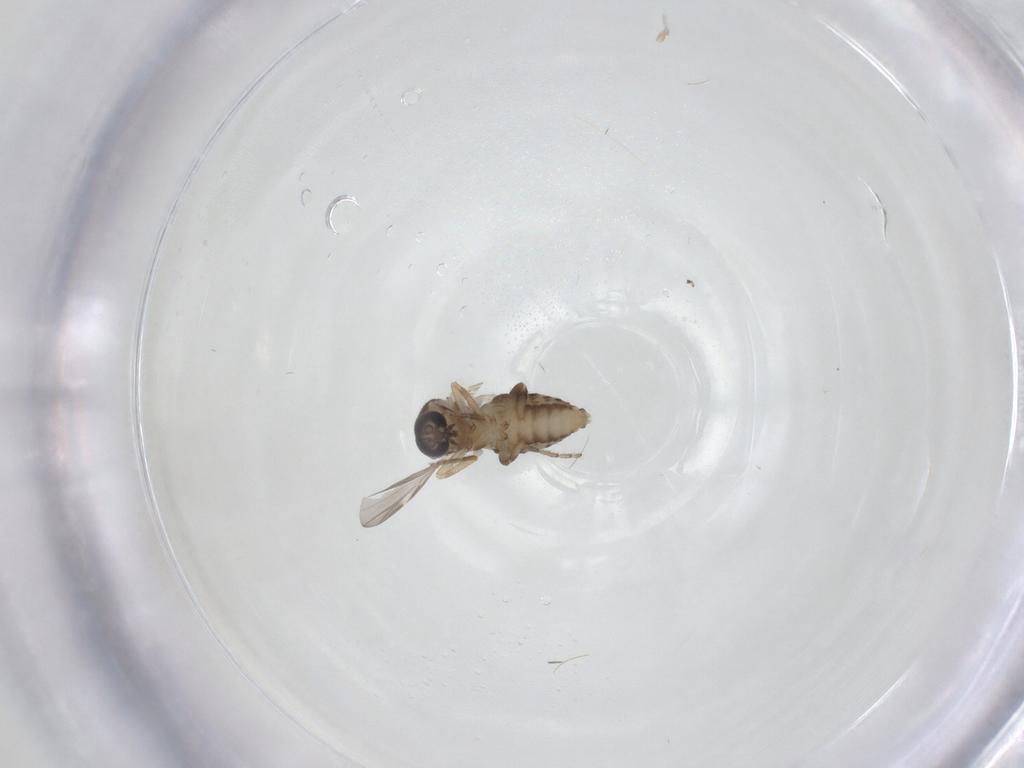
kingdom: Animalia
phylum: Arthropoda
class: Insecta
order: Diptera
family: Ceratopogonidae
